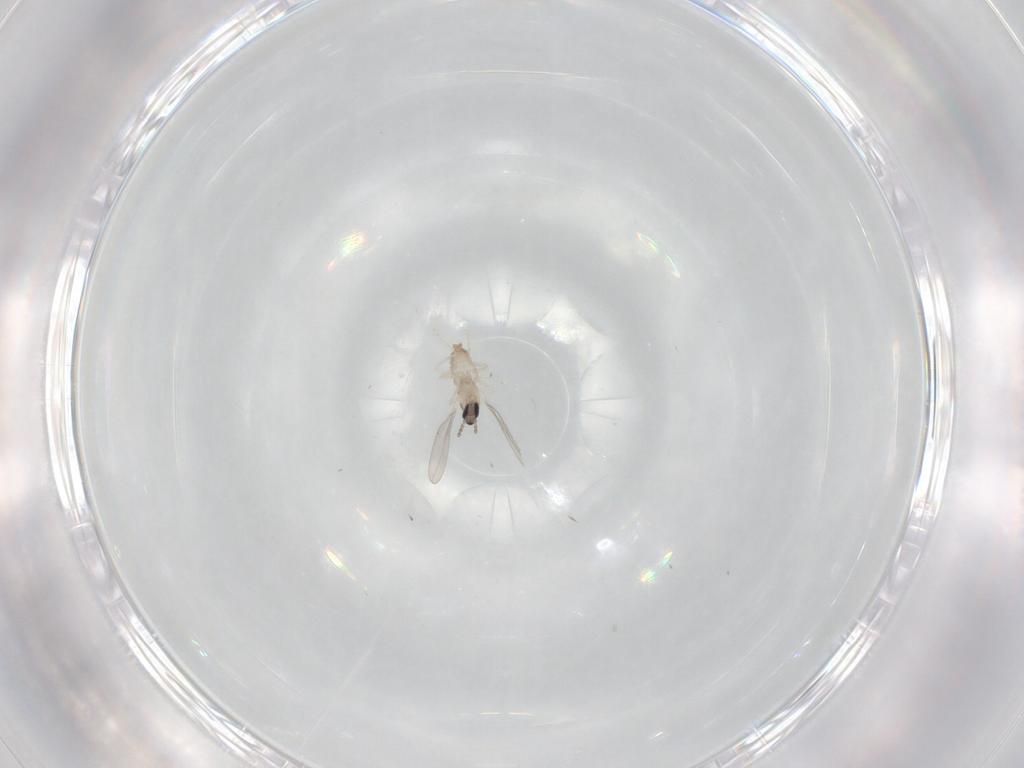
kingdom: Animalia
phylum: Arthropoda
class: Insecta
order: Diptera
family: Cecidomyiidae
